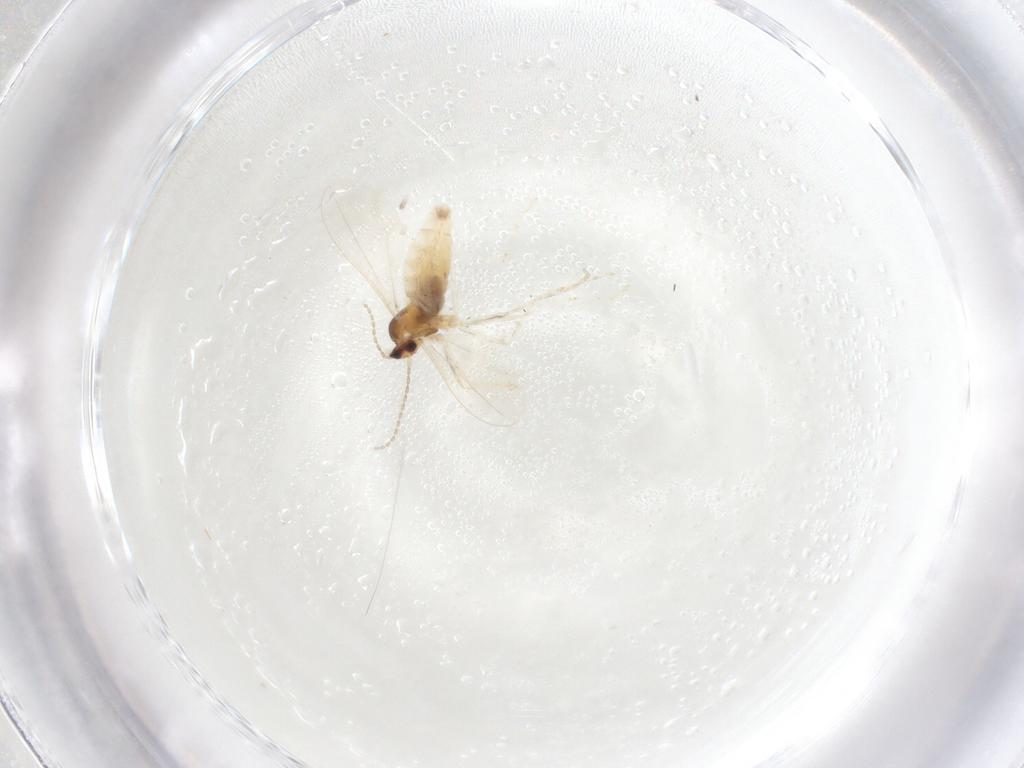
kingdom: Animalia
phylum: Arthropoda
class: Insecta
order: Diptera
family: Cecidomyiidae
